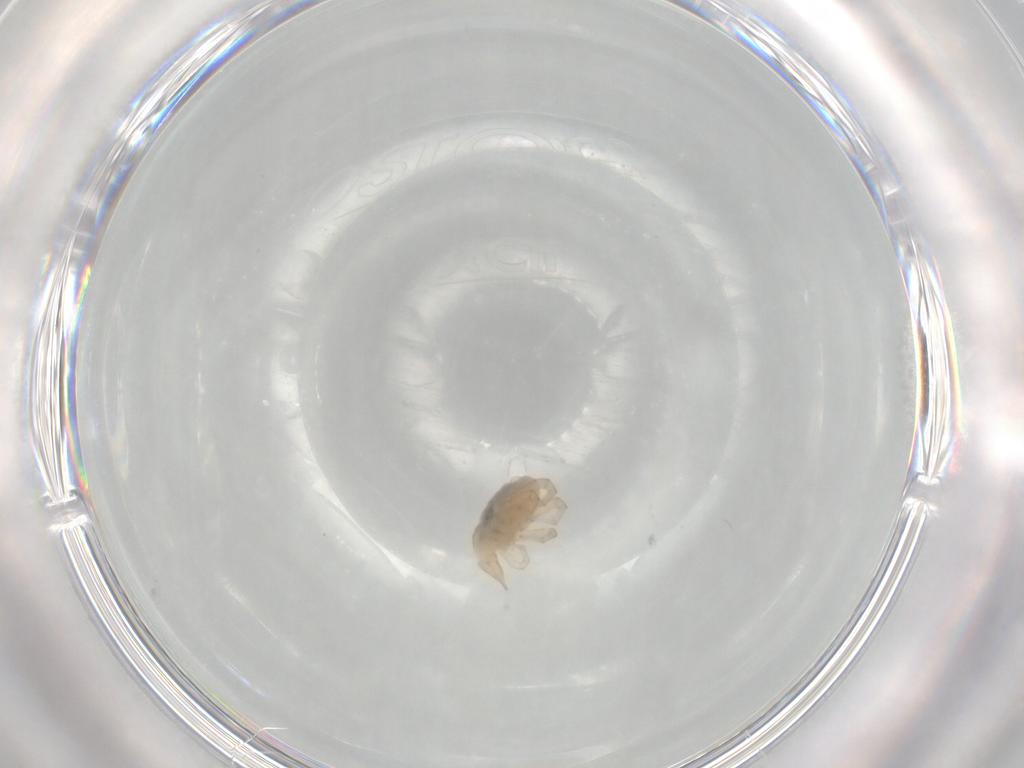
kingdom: Animalia
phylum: Arthropoda
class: Arachnida
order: Trombidiformes
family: Bdellidae
